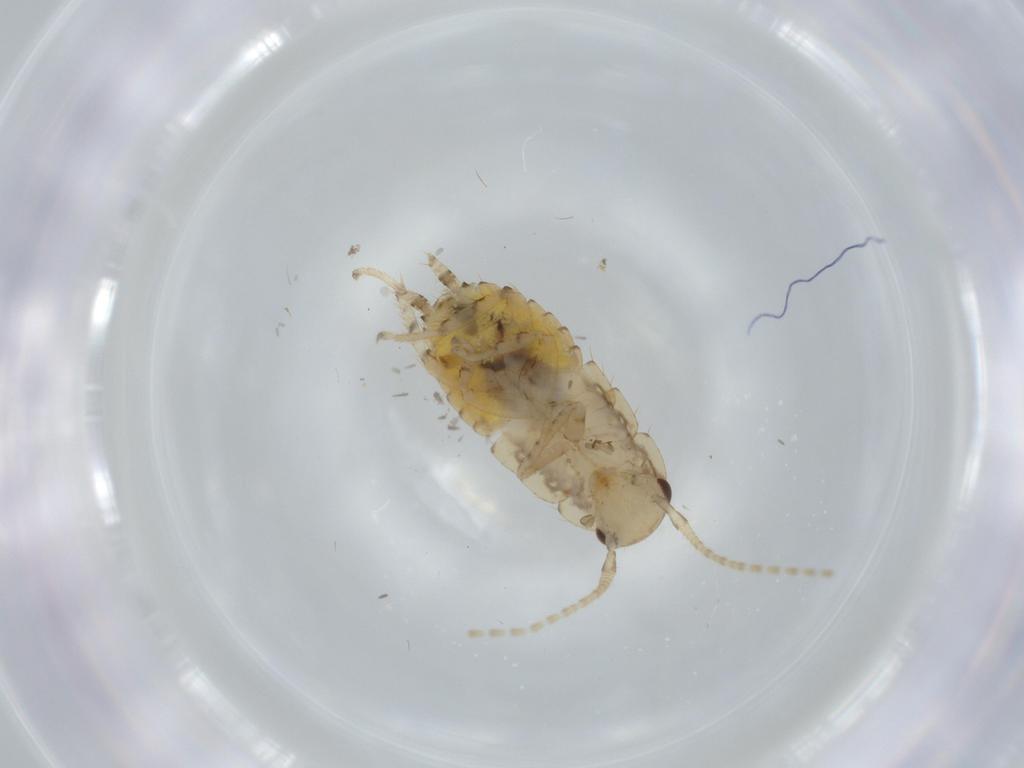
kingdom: Animalia
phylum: Arthropoda
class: Insecta
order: Blattodea
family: Ectobiidae
